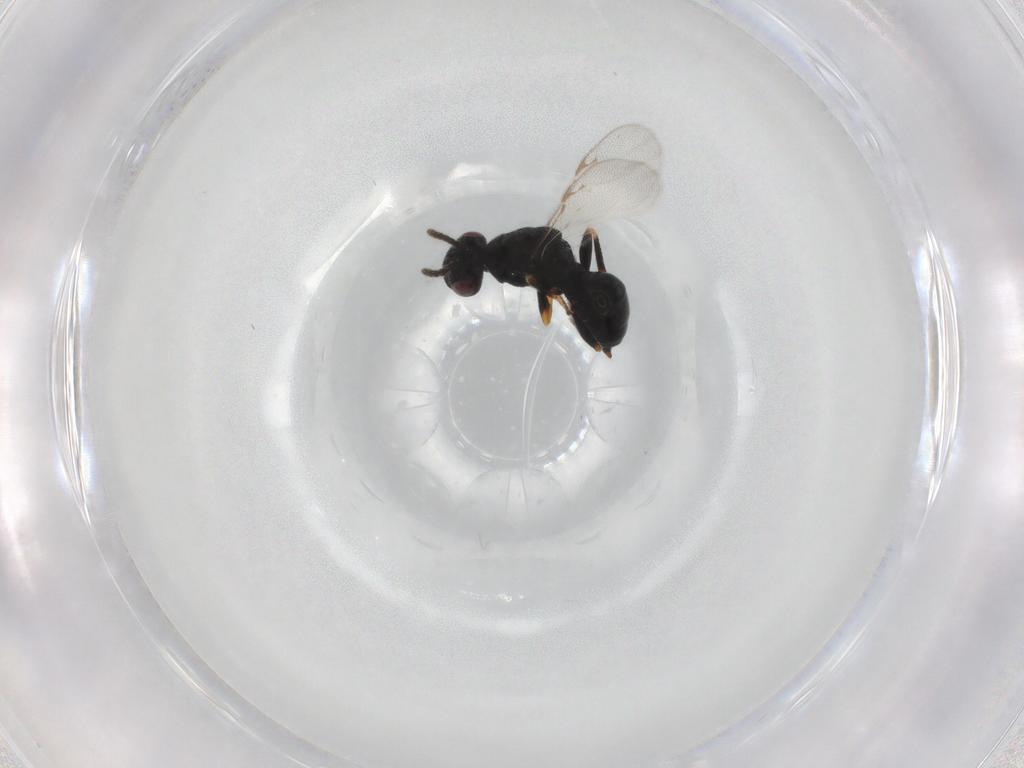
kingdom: Animalia
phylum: Arthropoda
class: Insecta
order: Hymenoptera
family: Eurytomidae
